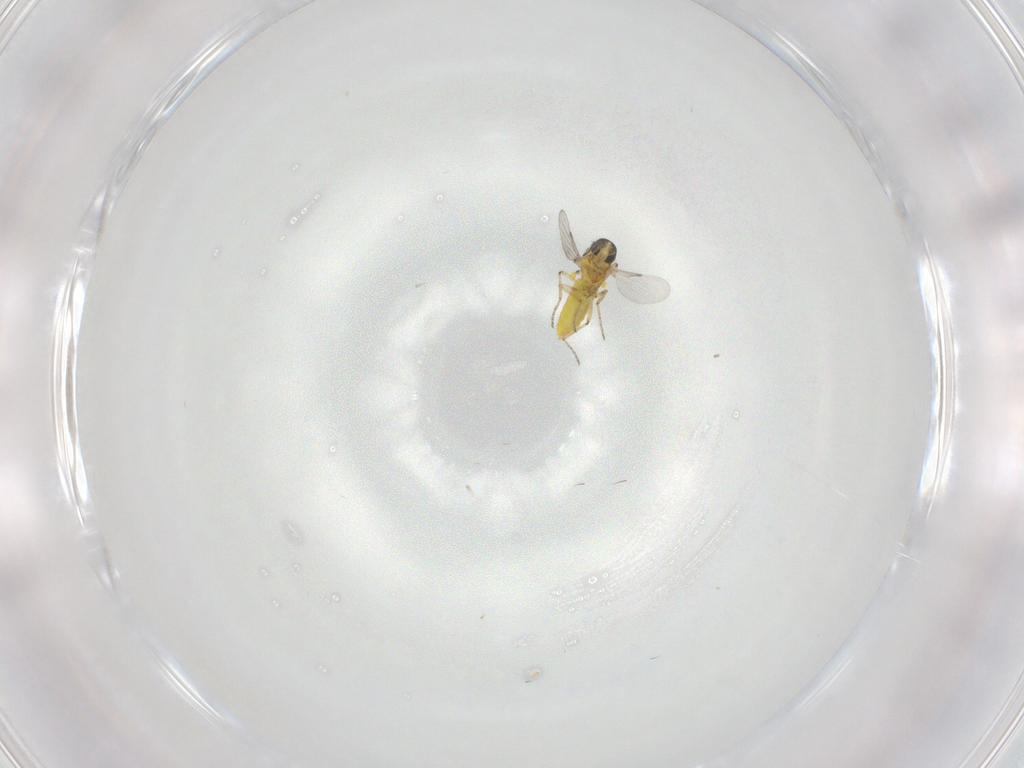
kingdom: Animalia
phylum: Arthropoda
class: Insecta
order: Diptera
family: Ceratopogonidae
